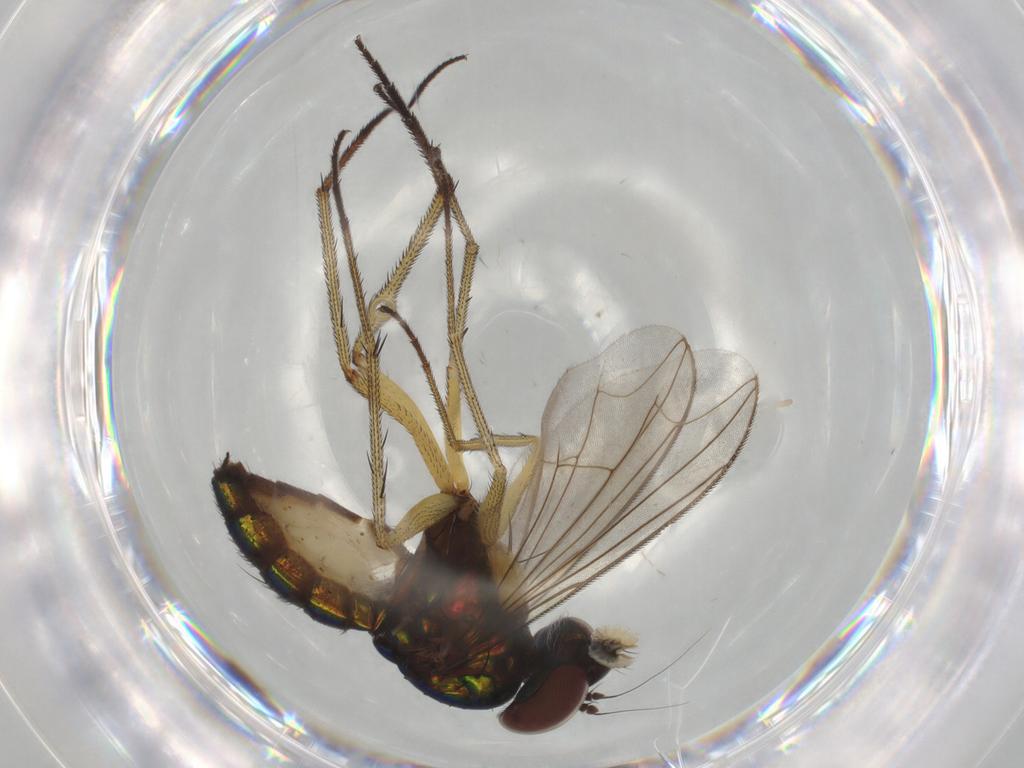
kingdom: Animalia
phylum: Arthropoda
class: Insecta
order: Diptera
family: Dolichopodidae
